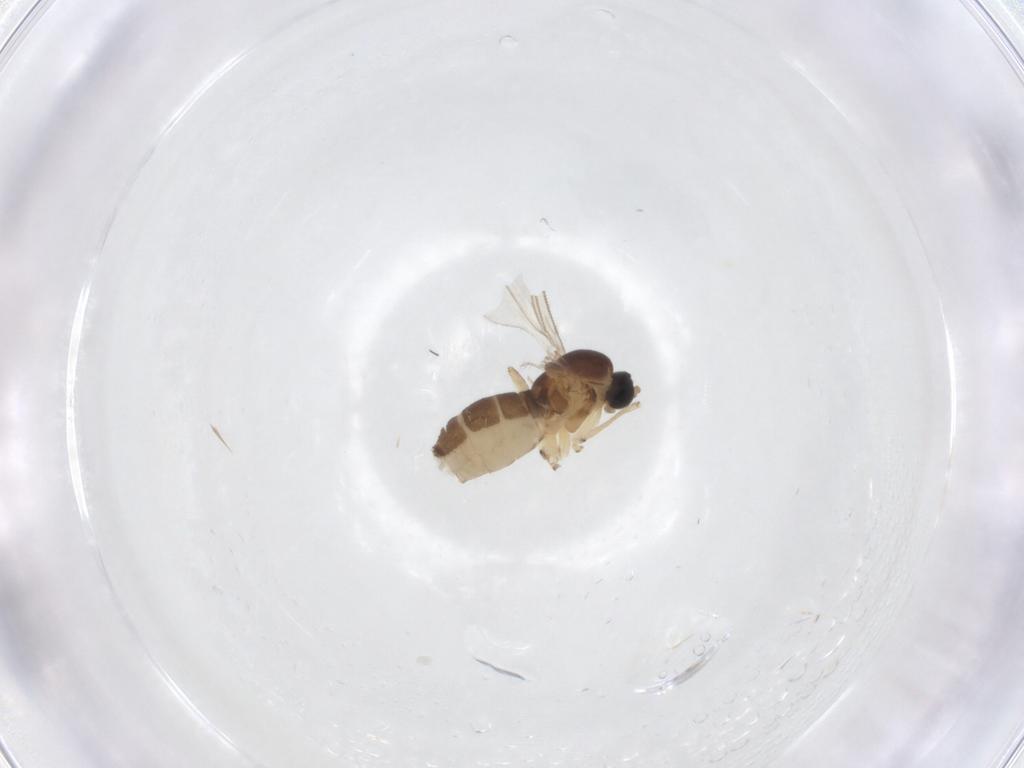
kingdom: Animalia
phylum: Arthropoda
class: Insecta
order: Diptera
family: Sciaridae
